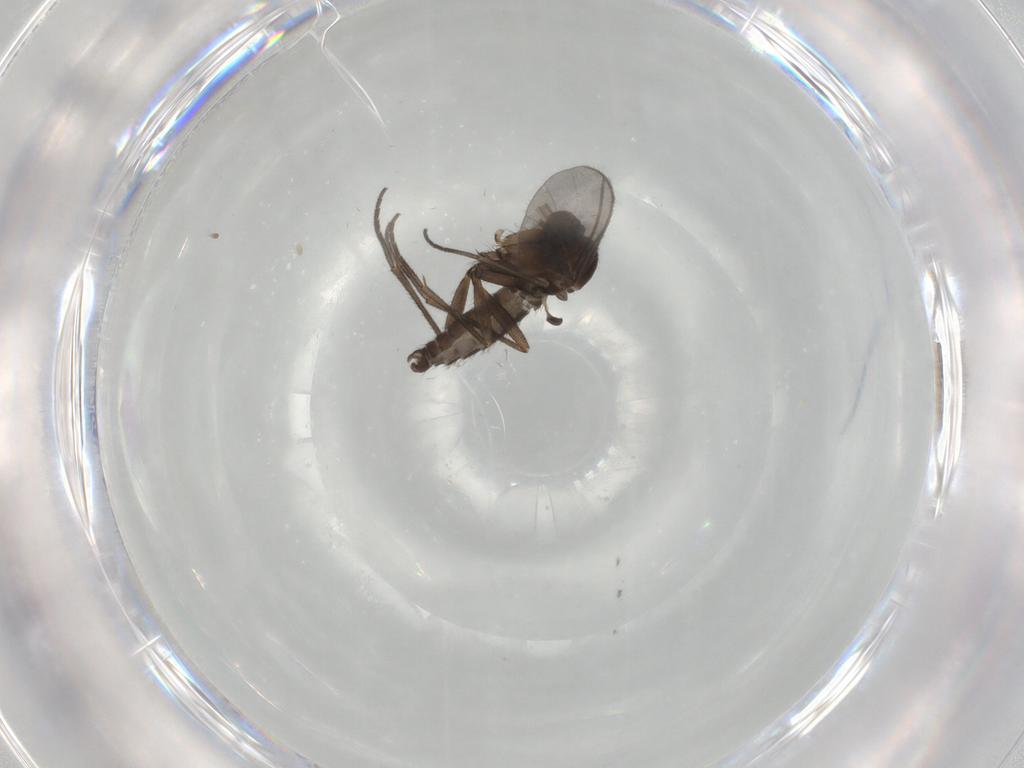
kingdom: Animalia
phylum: Arthropoda
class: Insecta
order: Diptera
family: Sciaridae
